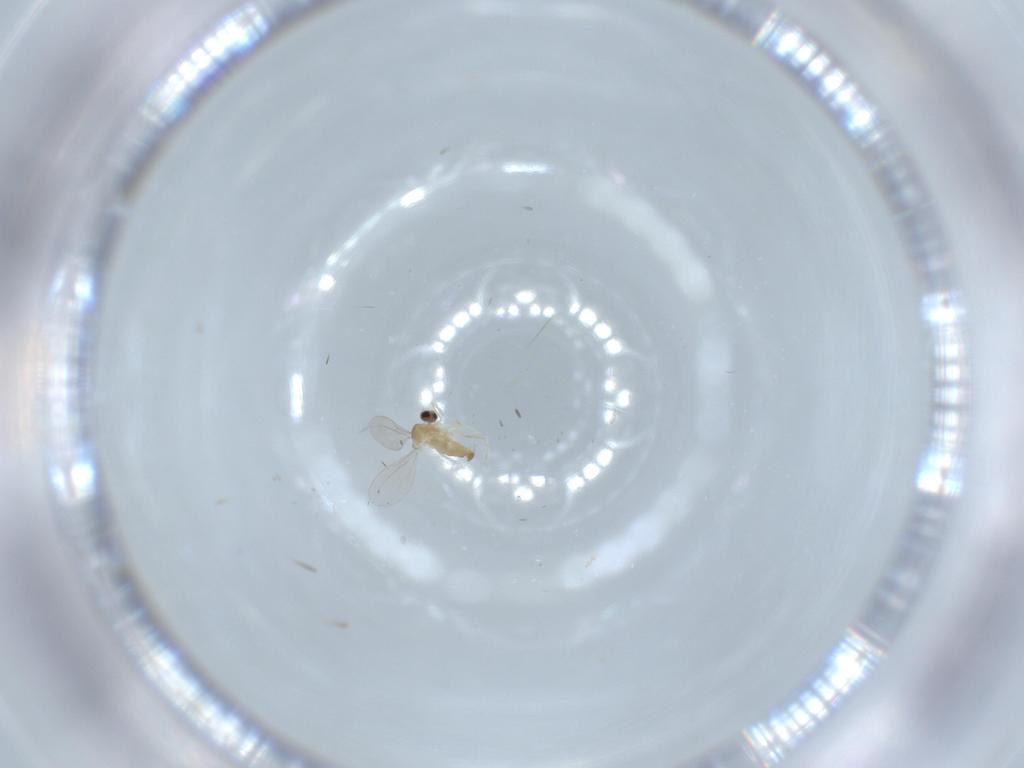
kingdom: Animalia
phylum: Arthropoda
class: Insecta
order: Diptera
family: Cecidomyiidae
